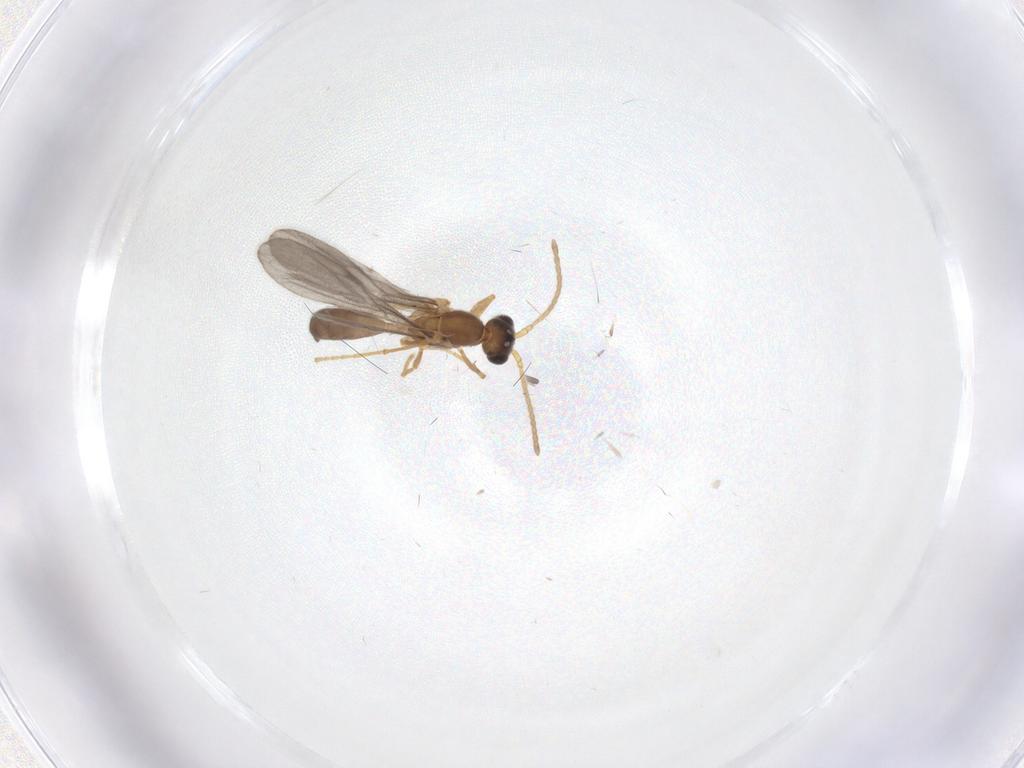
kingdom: Animalia
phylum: Arthropoda
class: Insecta
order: Hymenoptera
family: Formicidae
